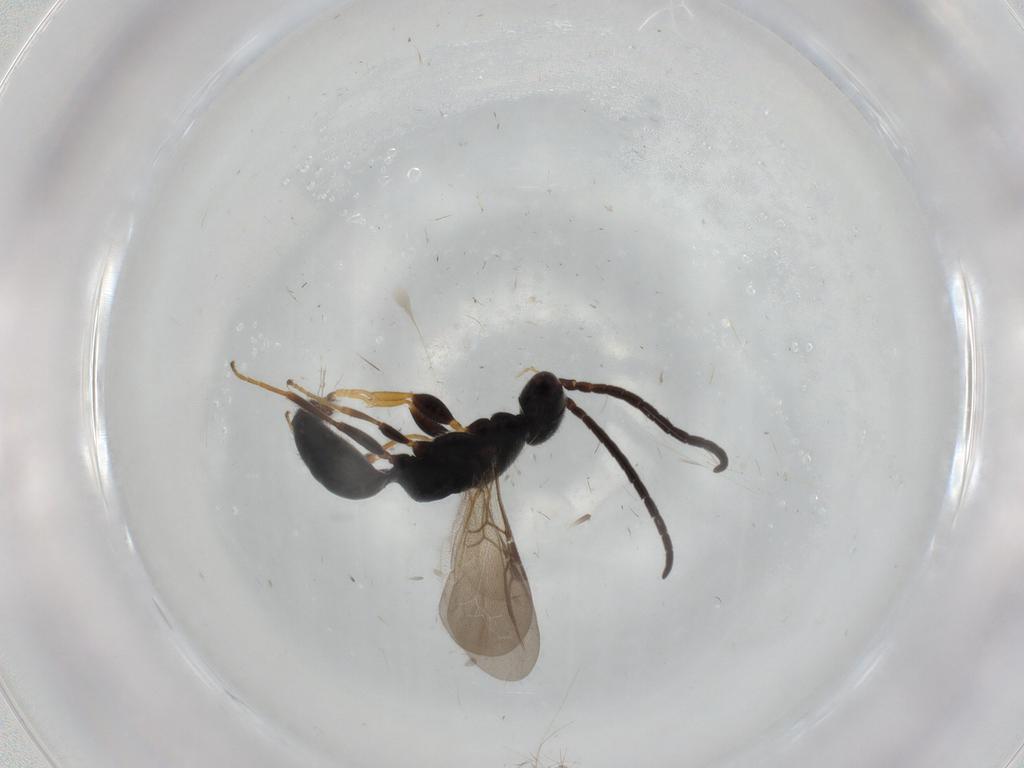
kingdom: Animalia
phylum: Arthropoda
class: Insecta
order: Hymenoptera
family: Bethylidae
